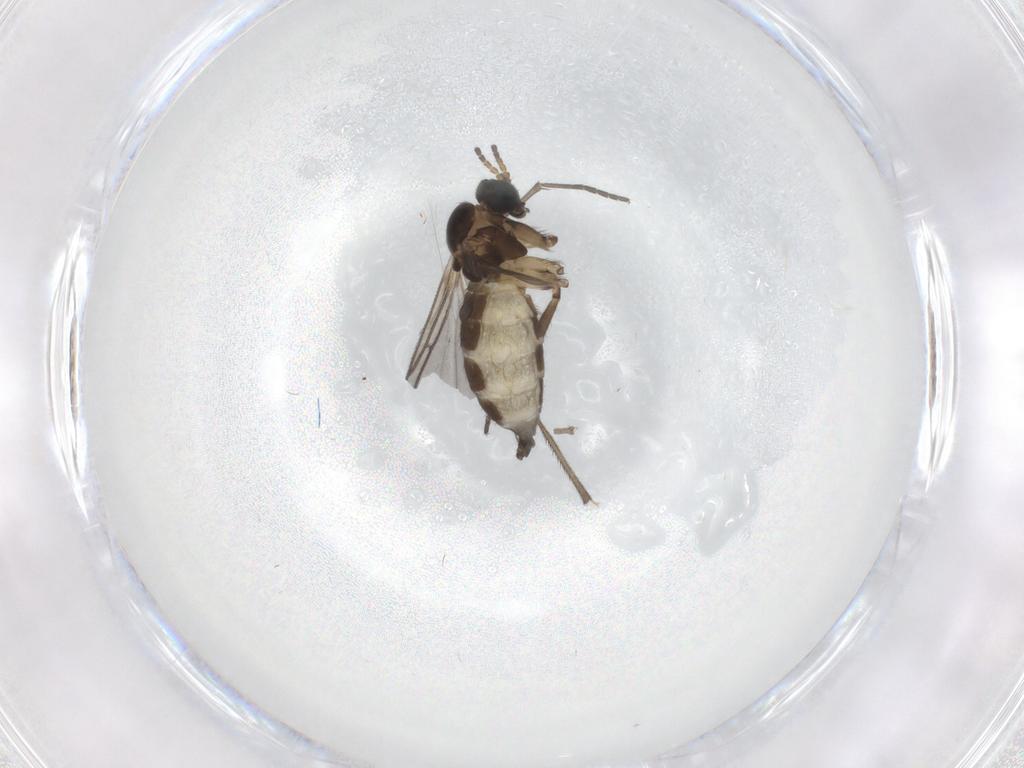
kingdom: Animalia
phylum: Arthropoda
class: Insecta
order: Diptera
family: Sciaridae
